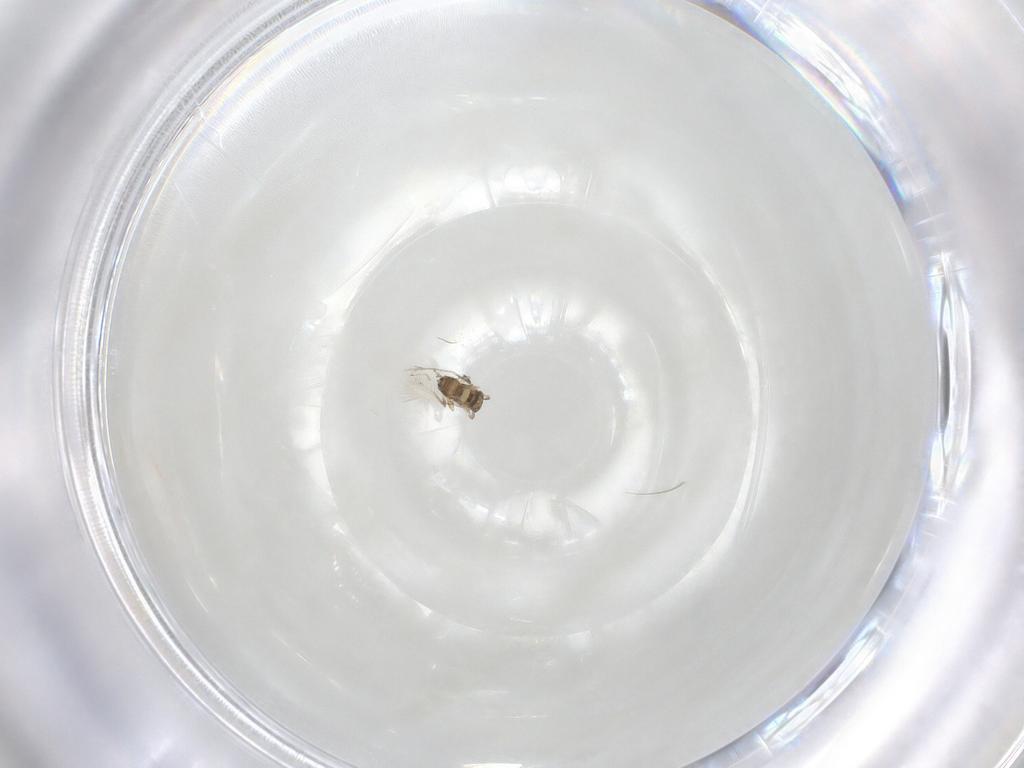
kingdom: Animalia
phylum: Arthropoda
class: Insecta
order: Hymenoptera
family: Mymaridae
